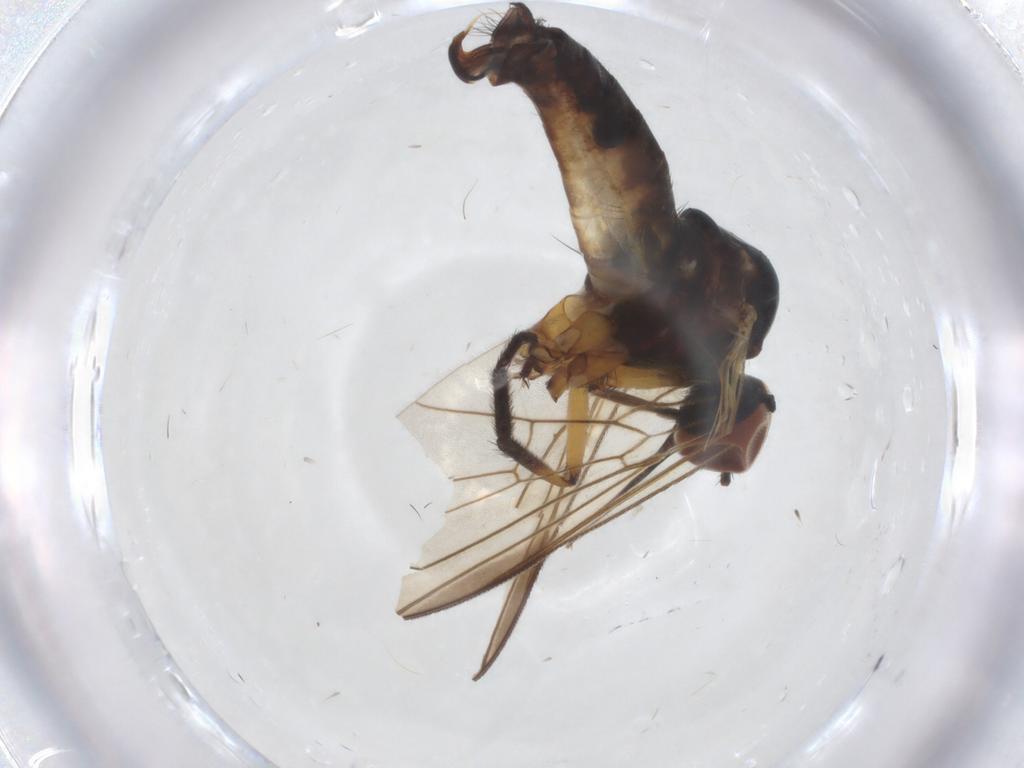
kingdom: Animalia
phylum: Arthropoda
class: Insecta
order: Diptera
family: Empididae
